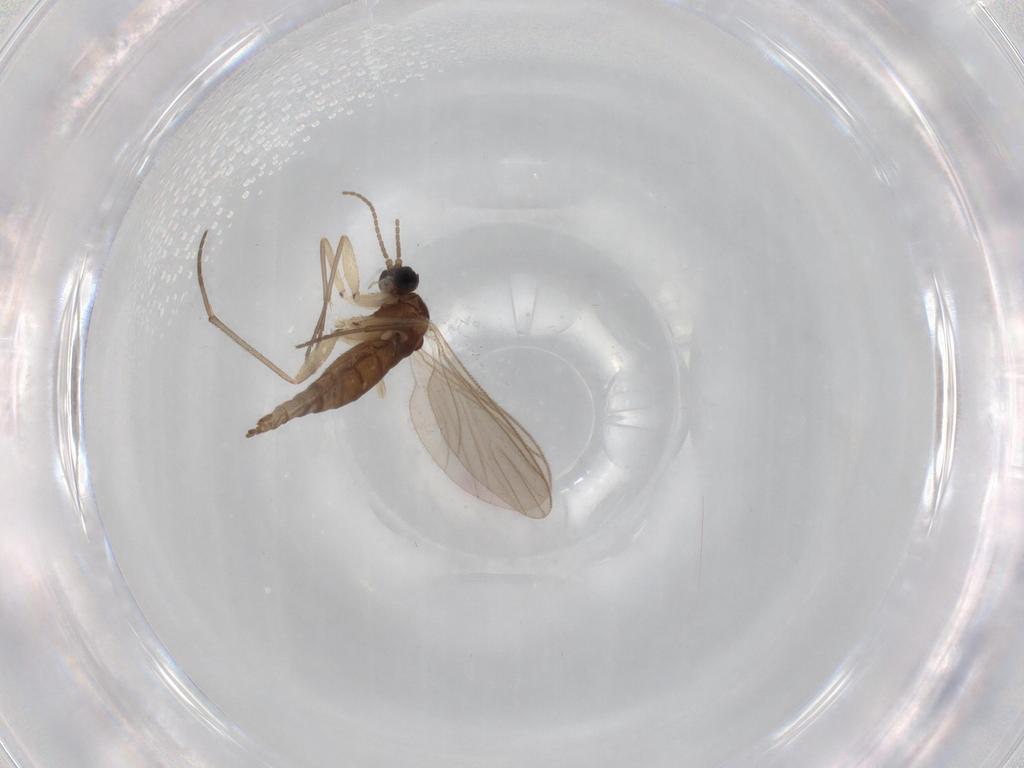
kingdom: Animalia
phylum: Arthropoda
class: Insecta
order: Diptera
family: Sciaridae
